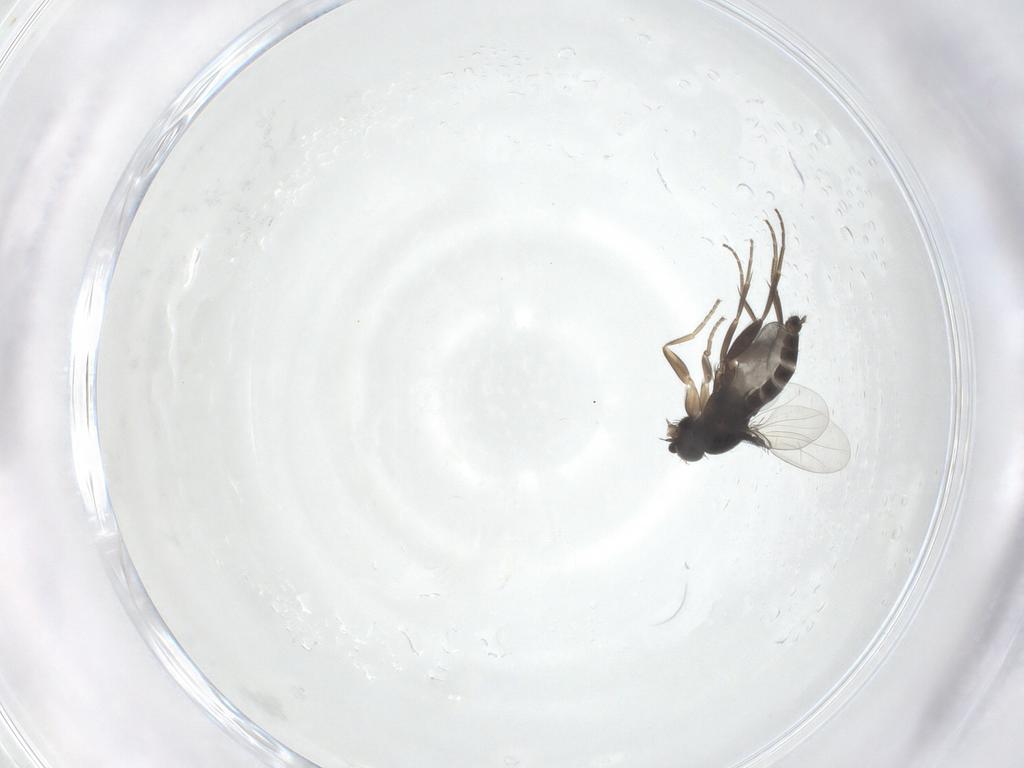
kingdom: Animalia
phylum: Arthropoda
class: Insecta
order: Diptera
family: Phoridae
